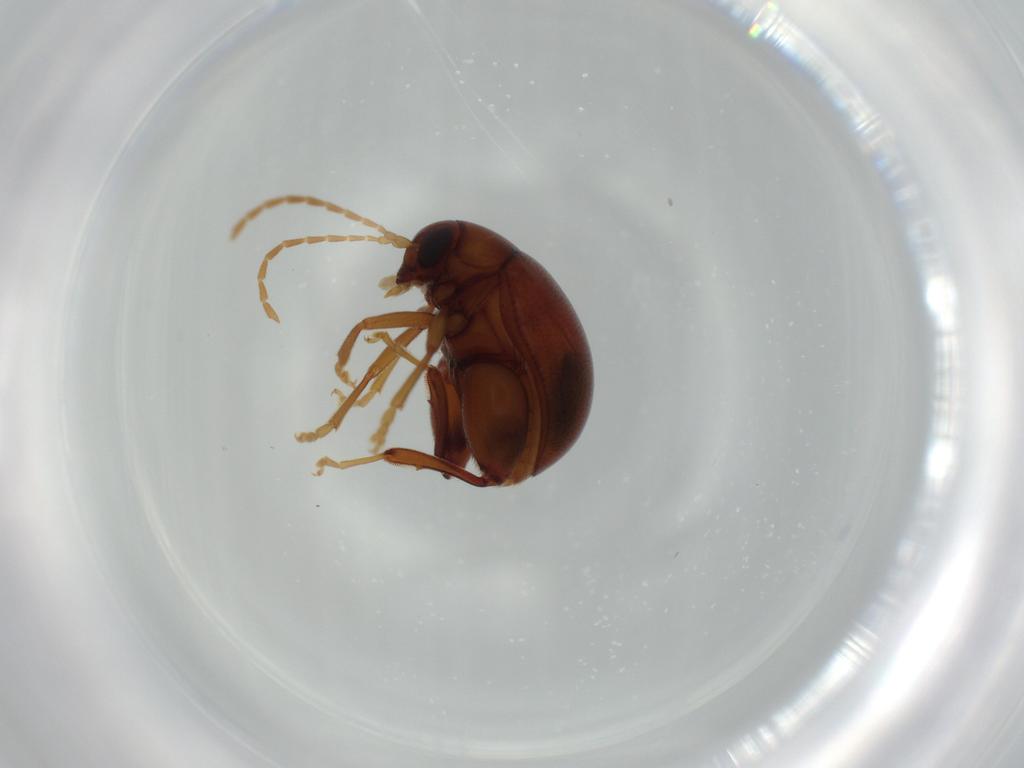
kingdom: Animalia
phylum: Arthropoda
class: Insecta
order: Coleoptera
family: Chrysomelidae
